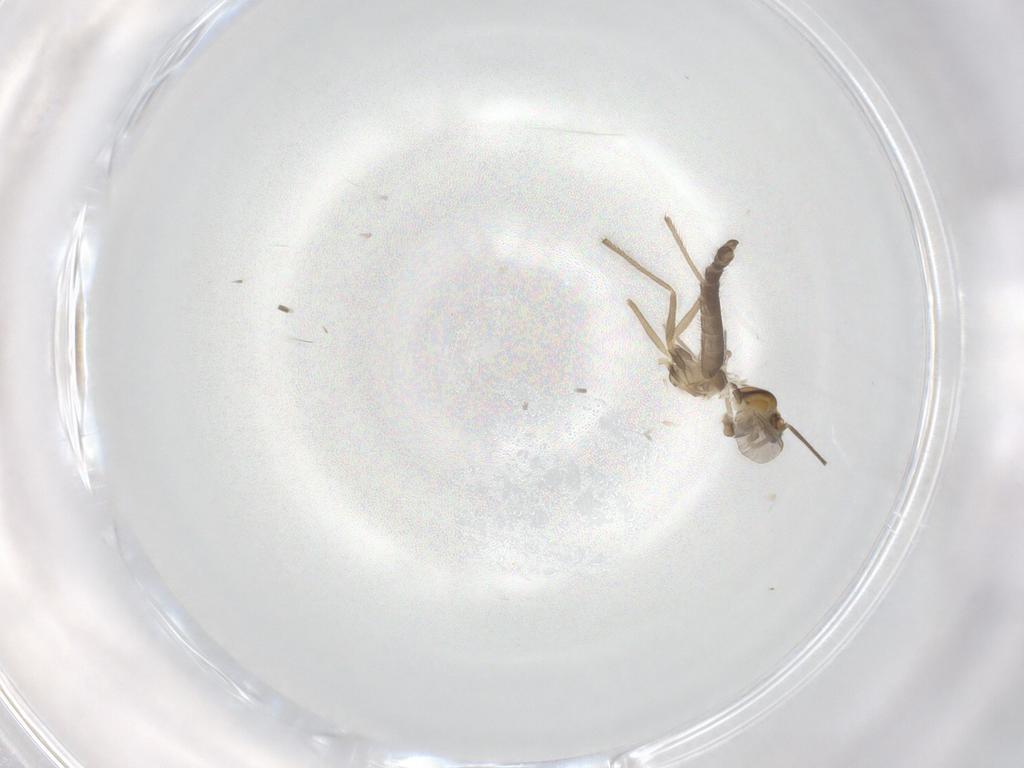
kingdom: Animalia
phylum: Arthropoda
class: Insecta
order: Diptera
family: Chironomidae
